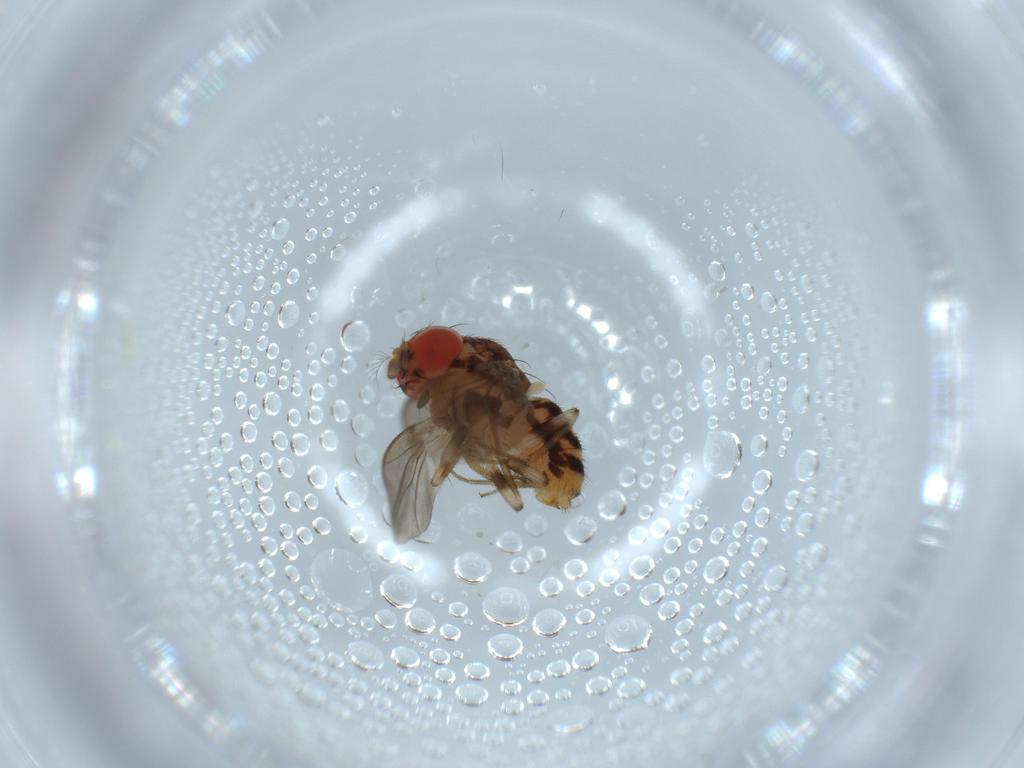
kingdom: Animalia
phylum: Arthropoda
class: Insecta
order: Diptera
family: Drosophilidae
